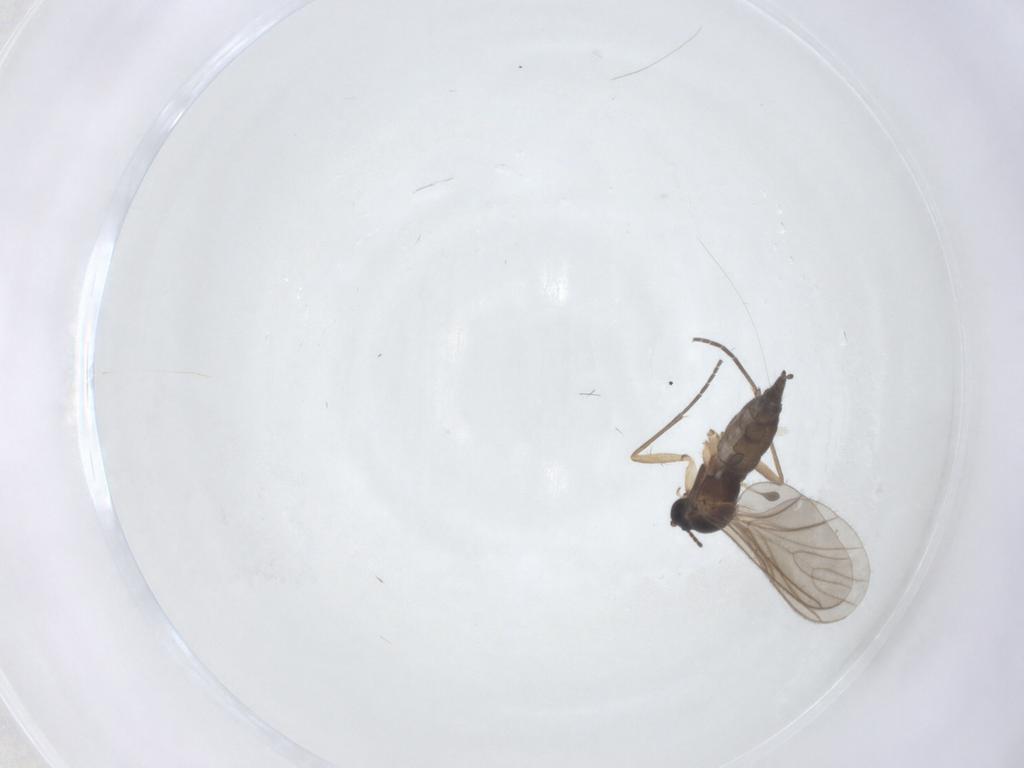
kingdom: Animalia
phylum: Arthropoda
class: Insecta
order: Diptera
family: Sciaridae
